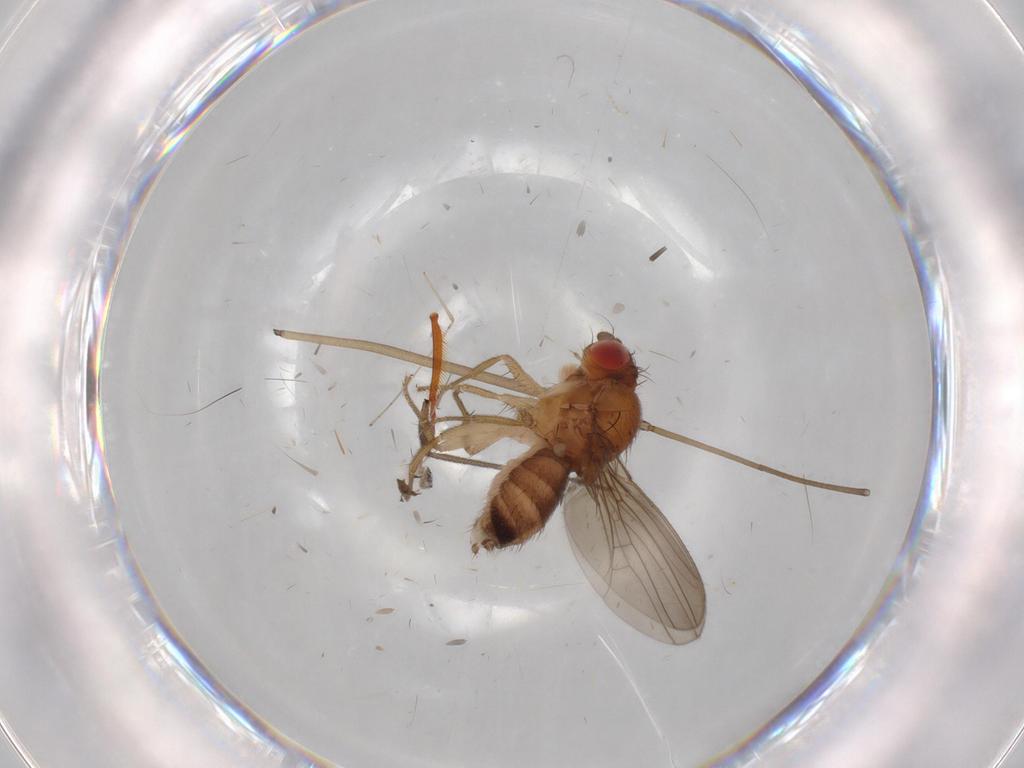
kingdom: Animalia
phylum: Arthropoda
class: Insecta
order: Diptera
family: Drosophilidae
